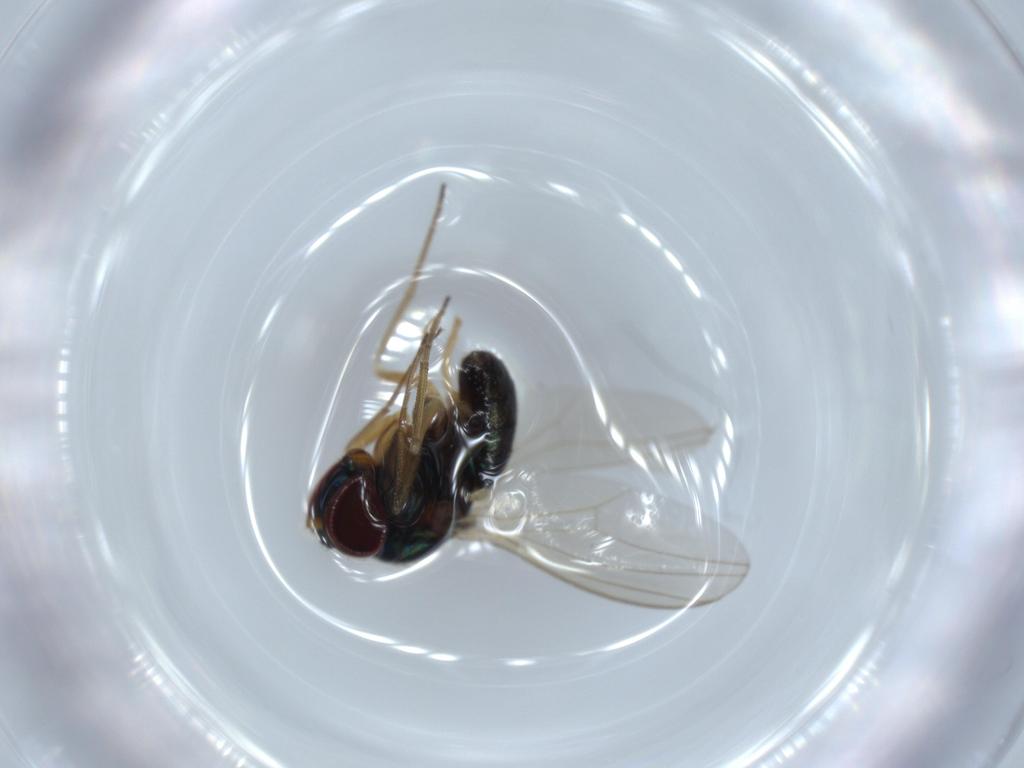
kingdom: Animalia
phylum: Arthropoda
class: Insecta
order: Diptera
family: Dolichopodidae
